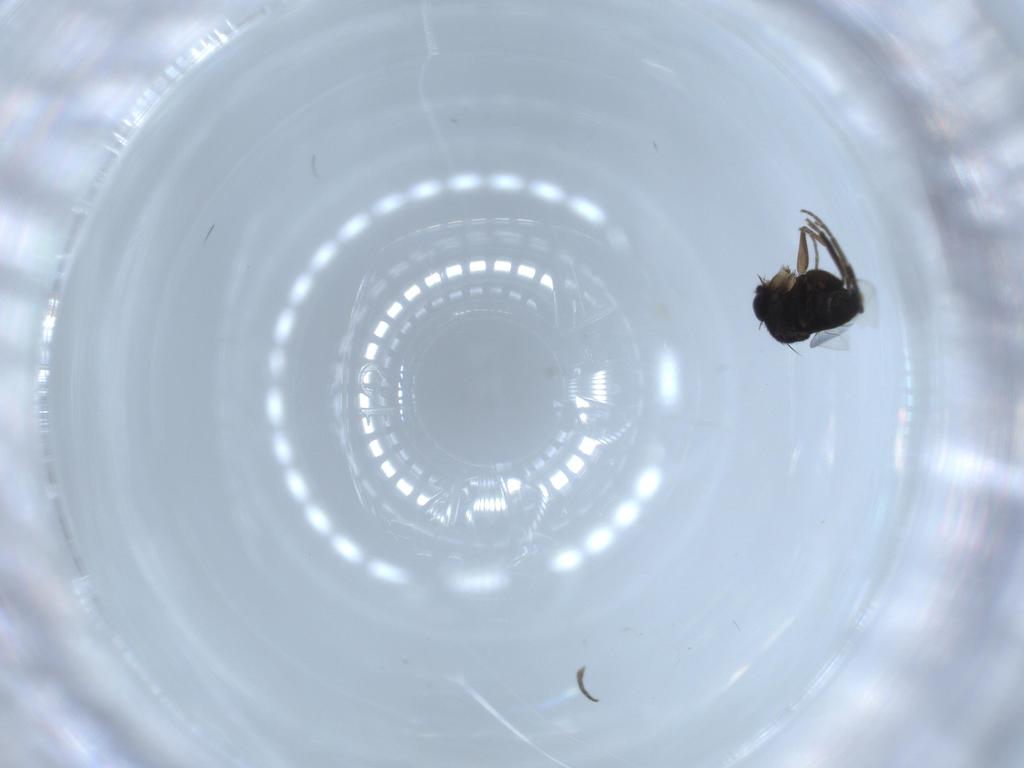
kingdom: Animalia
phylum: Arthropoda
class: Insecta
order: Diptera
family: Phoridae
